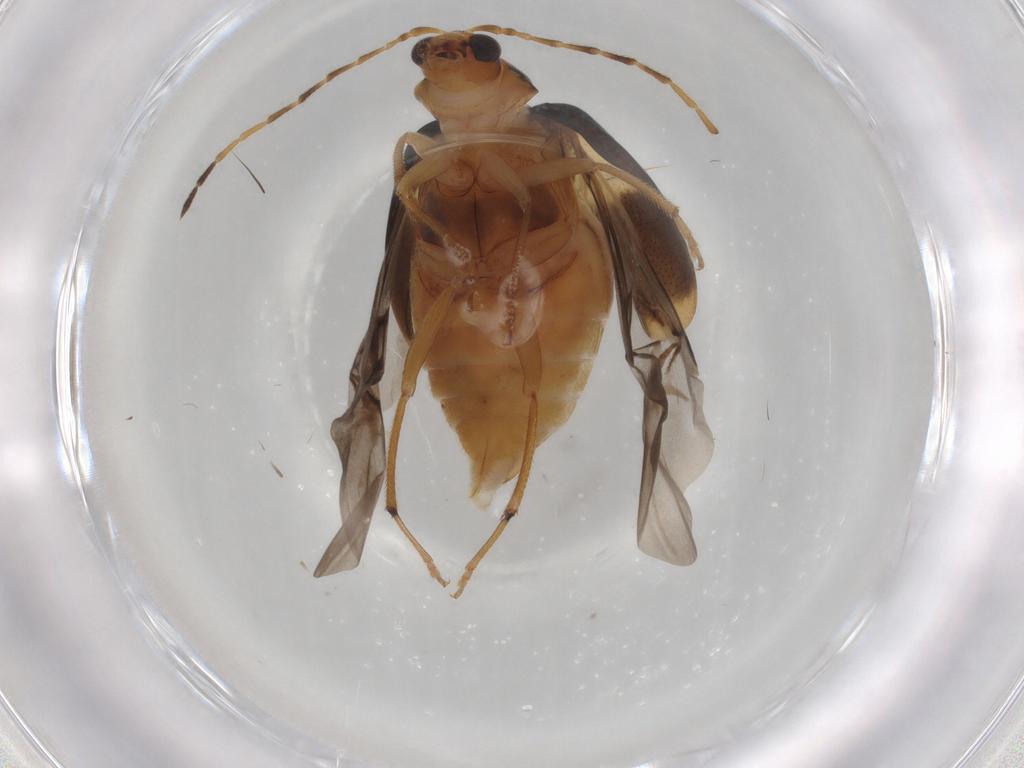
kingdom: Animalia
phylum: Arthropoda
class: Insecta
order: Coleoptera
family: Chrysomelidae
